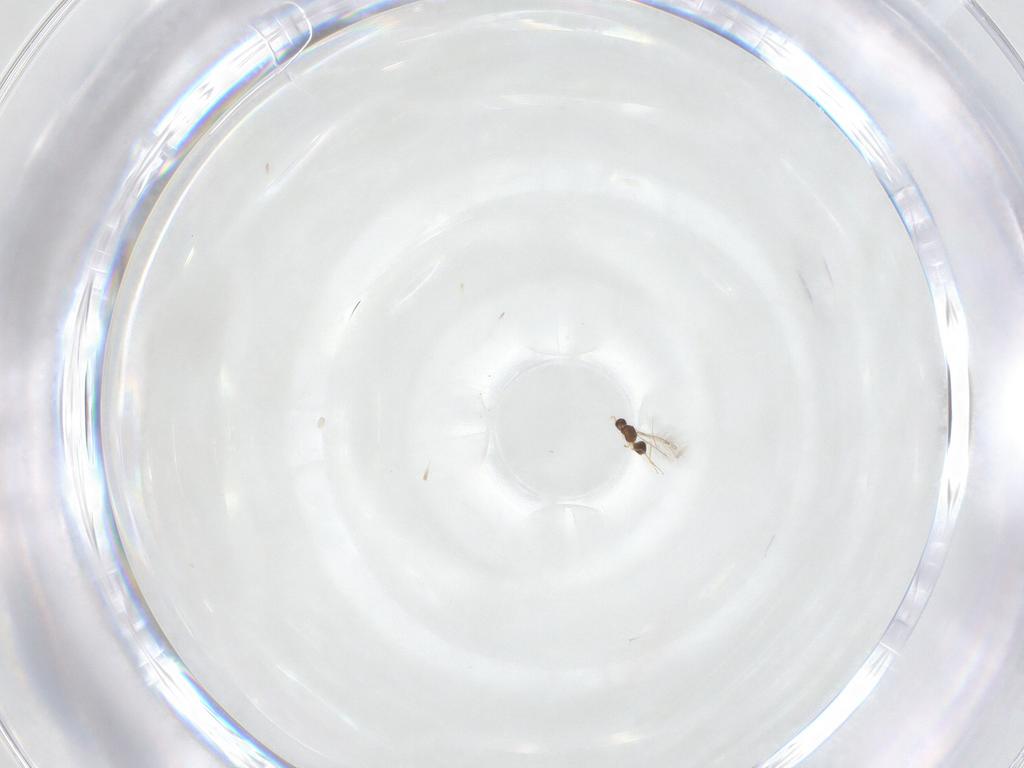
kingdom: Animalia
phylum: Arthropoda
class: Insecta
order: Hymenoptera
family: Mymaridae
